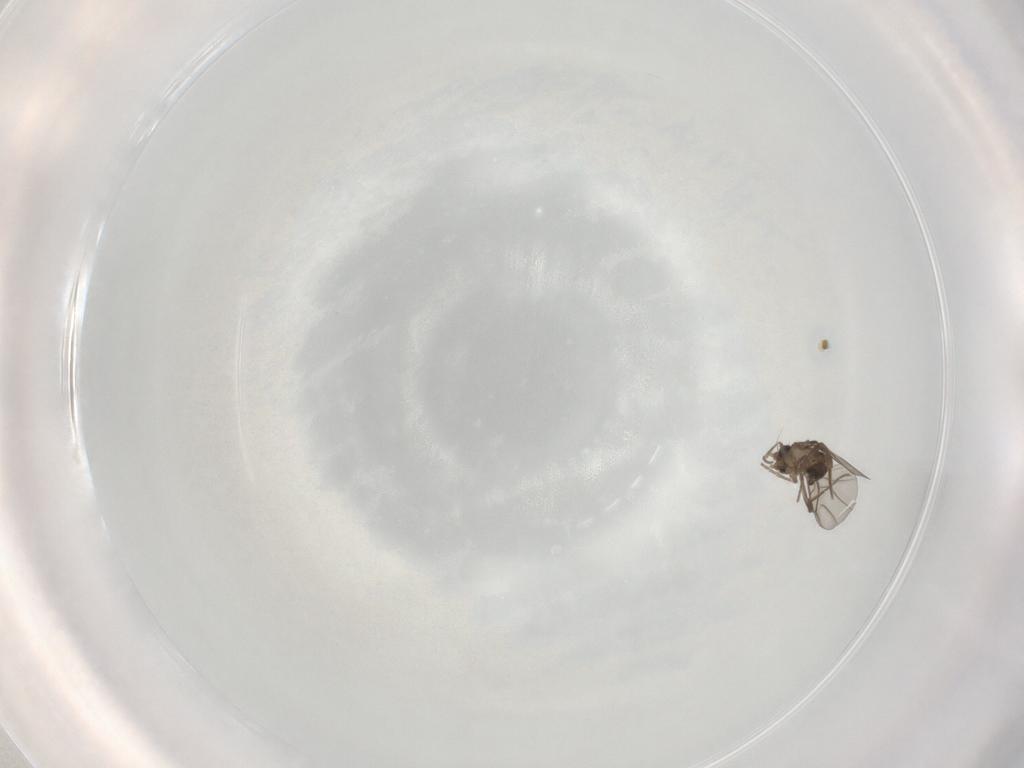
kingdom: Animalia
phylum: Arthropoda
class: Insecta
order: Diptera
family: Phoridae
